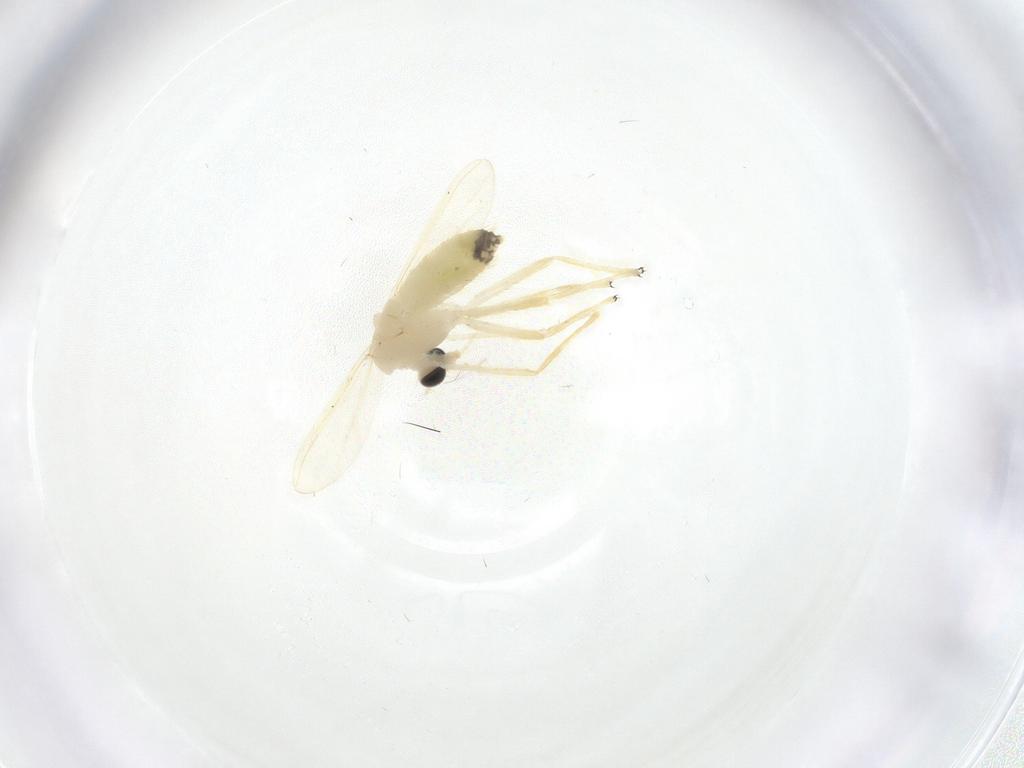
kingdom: Animalia
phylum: Arthropoda
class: Insecta
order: Diptera
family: Chironomidae
